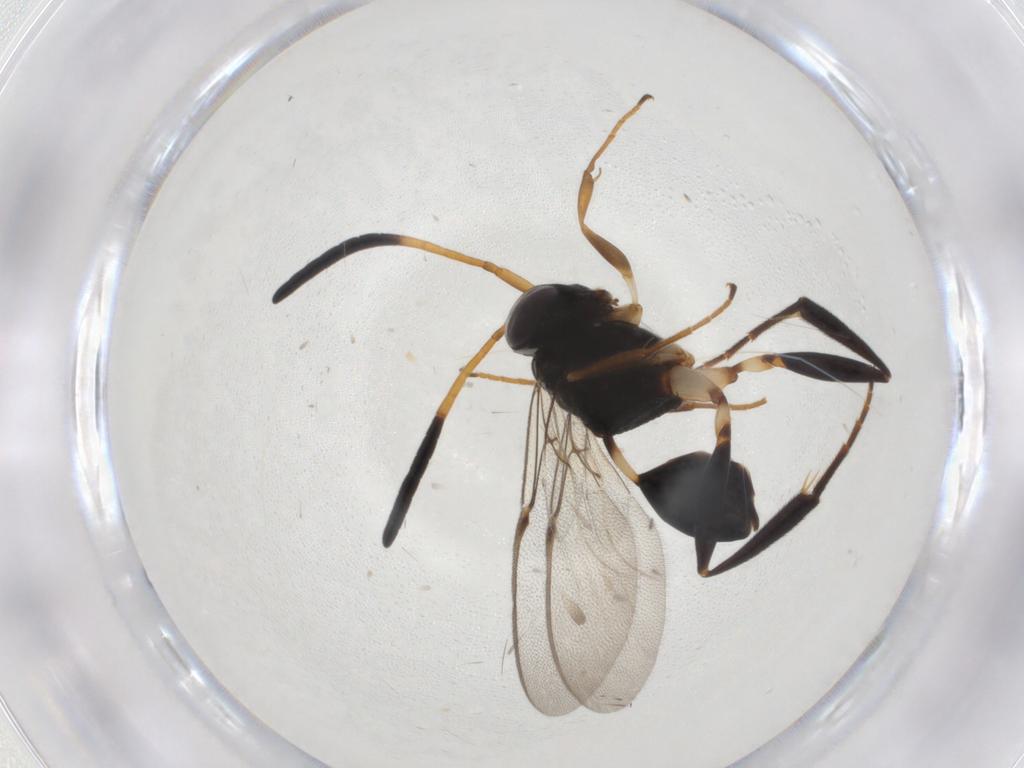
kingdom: Animalia
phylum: Arthropoda
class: Insecta
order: Hymenoptera
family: Evaniidae
